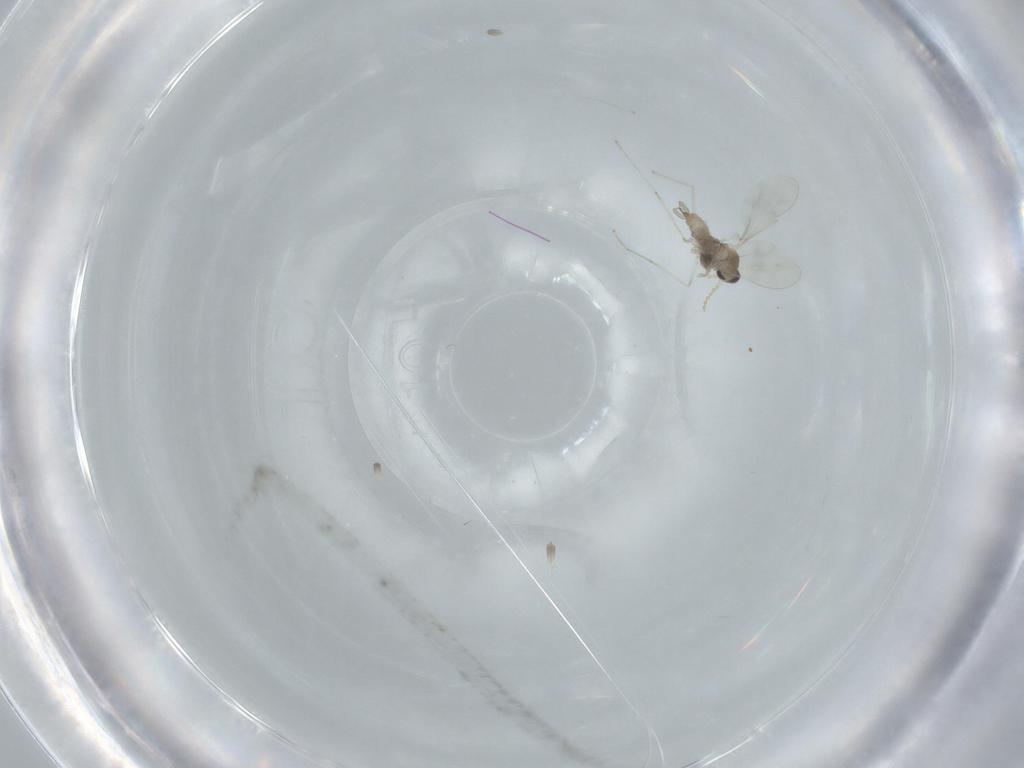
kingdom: Animalia
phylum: Arthropoda
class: Insecta
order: Diptera
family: Cecidomyiidae
